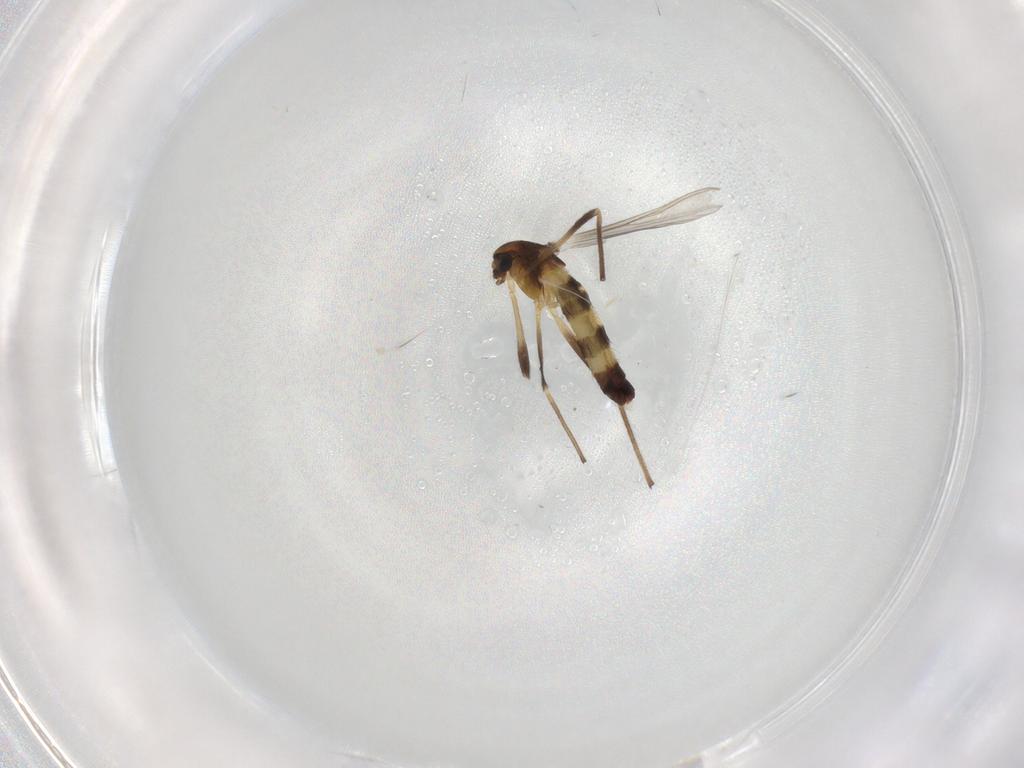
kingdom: Animalia
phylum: Arthropoda
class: Insecta
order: Diptera
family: Chironomidae
